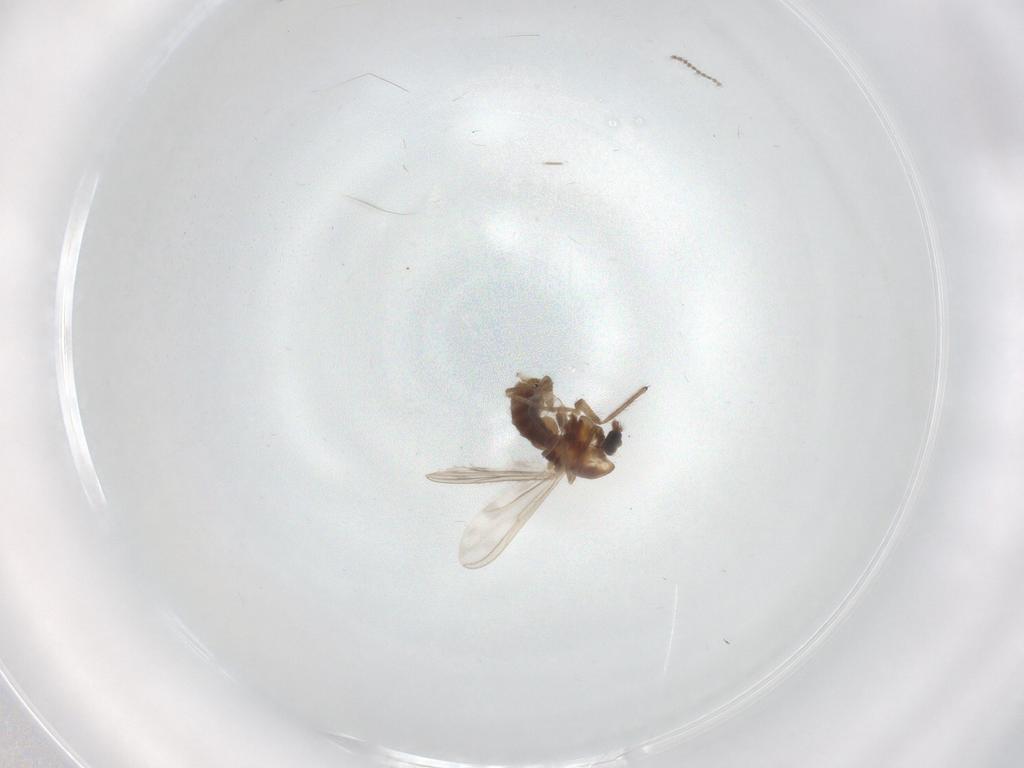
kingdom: Animalia
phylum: Arthropoda
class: Insecta
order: Diptera
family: Chironomidae
